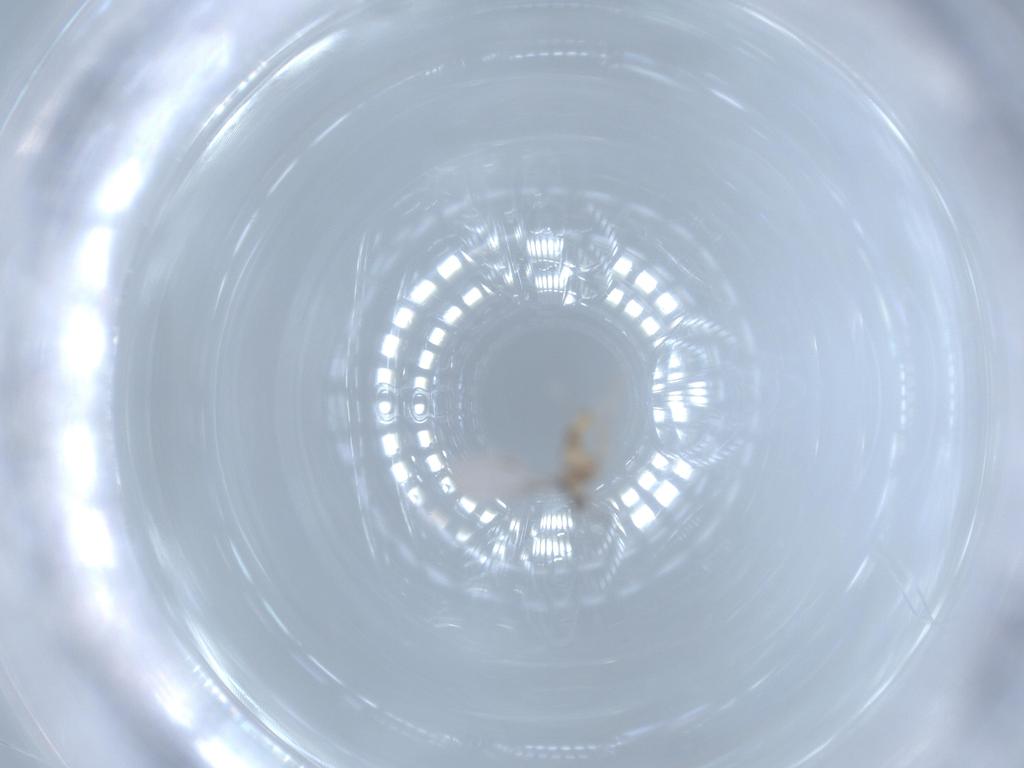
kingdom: Animalia
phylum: Arthropoda
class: Insecta
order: Diptera
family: Cecidomyiidae
